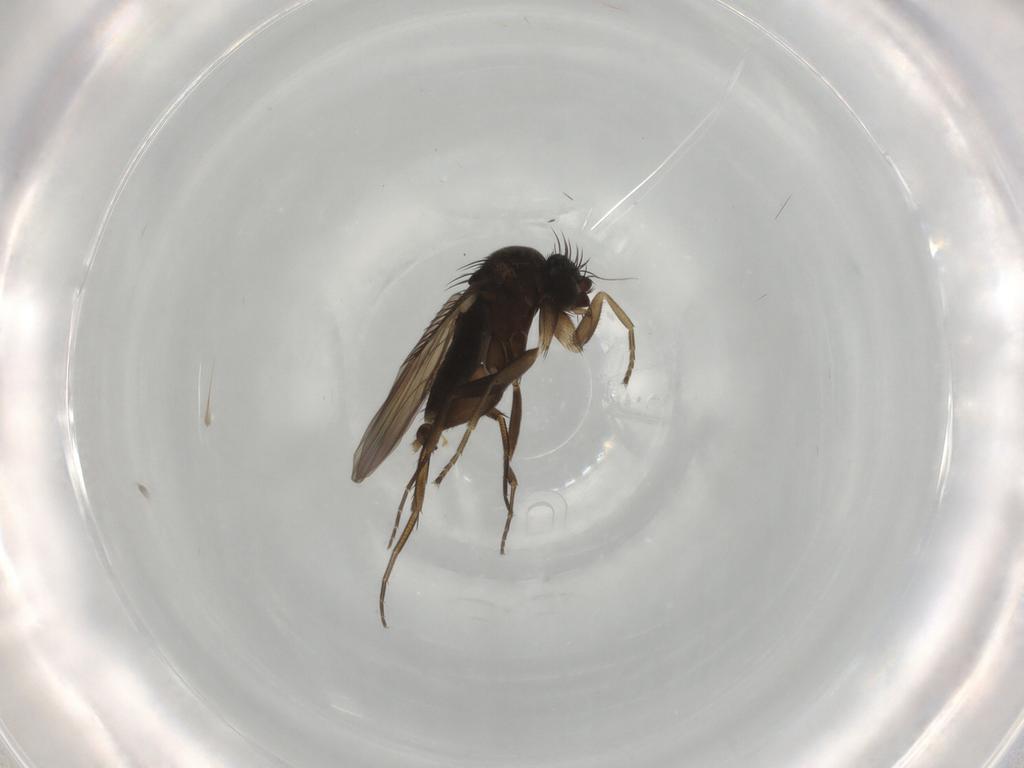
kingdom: Animalia
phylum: Arthropoda
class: Insecta
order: Diptera
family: Phoridae
